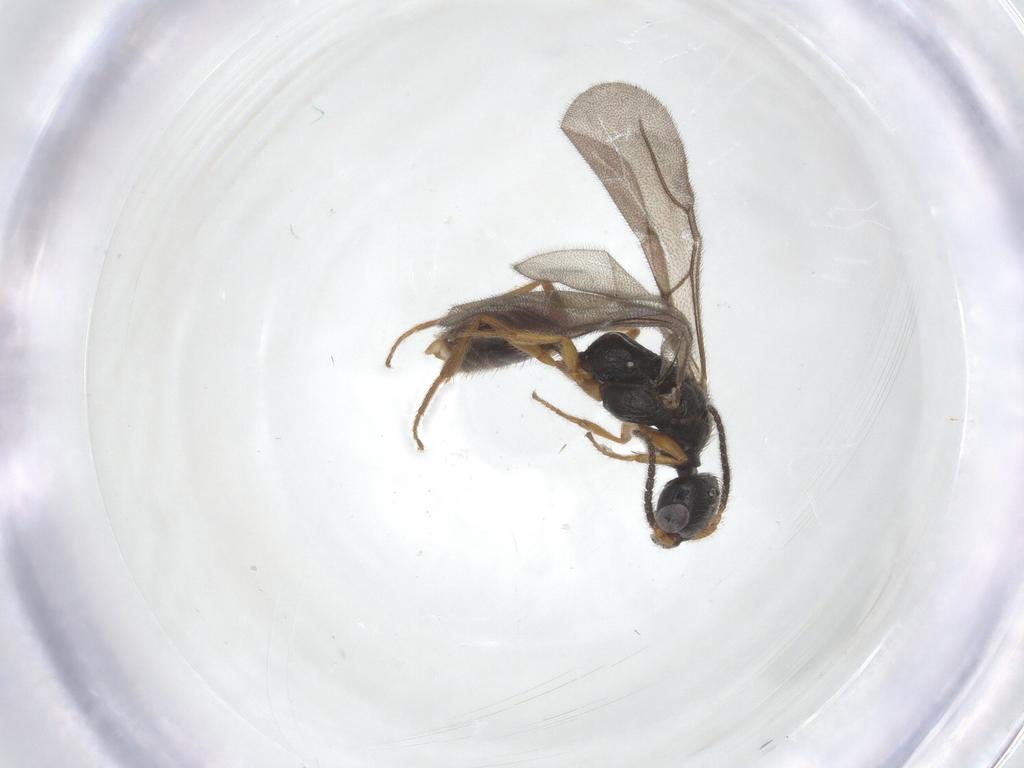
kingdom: Animalia
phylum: Arthropoda
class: Insecta
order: Hymenoptera
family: Bethylidae
